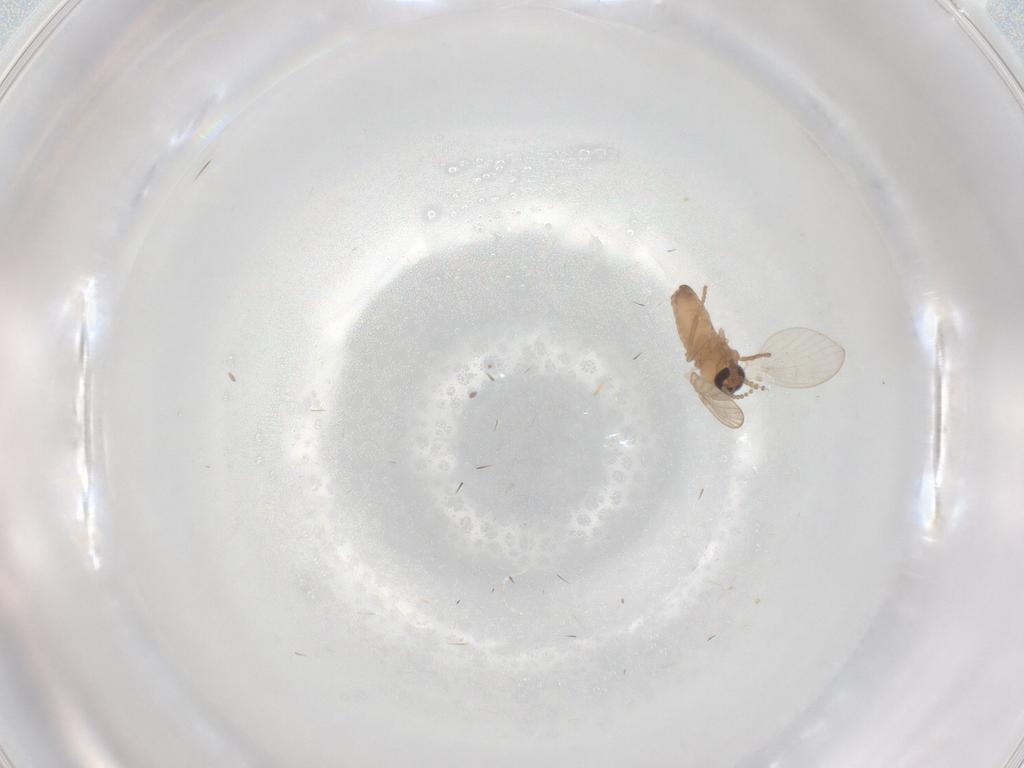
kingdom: Animalia
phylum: Arthropoda
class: Insecta
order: Diptera
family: Psychodidae
